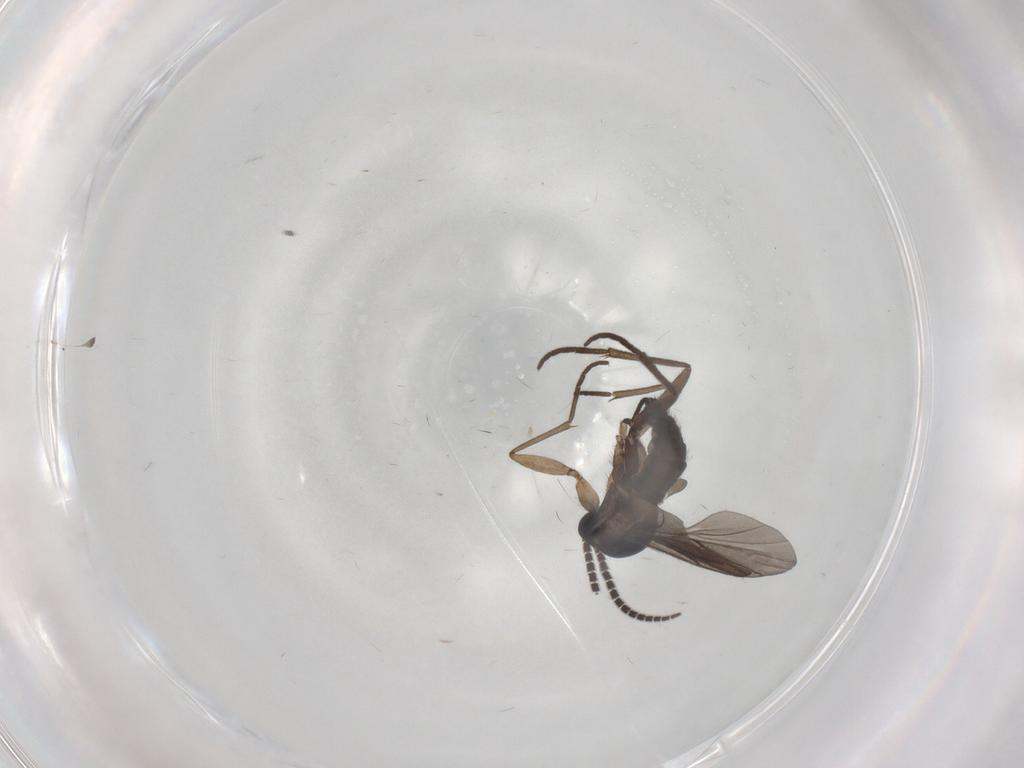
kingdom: Animalia
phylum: Arthropoda
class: Insecta
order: Diptera
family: Sciaridae
